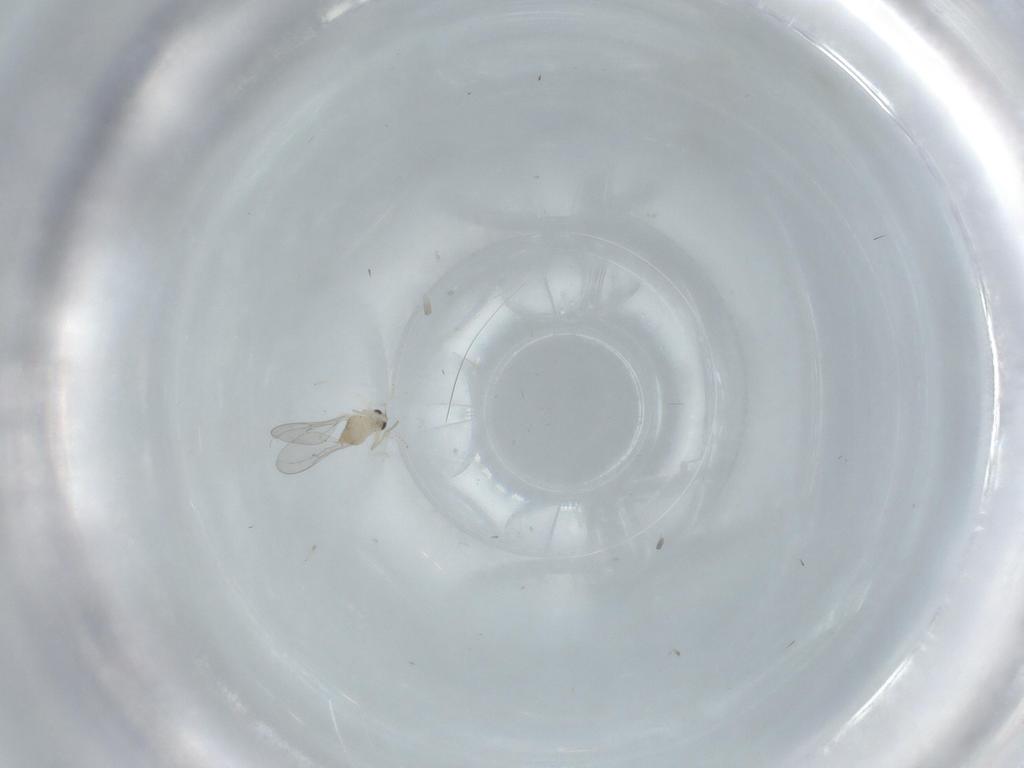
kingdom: Animalia
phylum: Arthropoda
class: Insecta
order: Diptera
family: Cecidomyiidae
